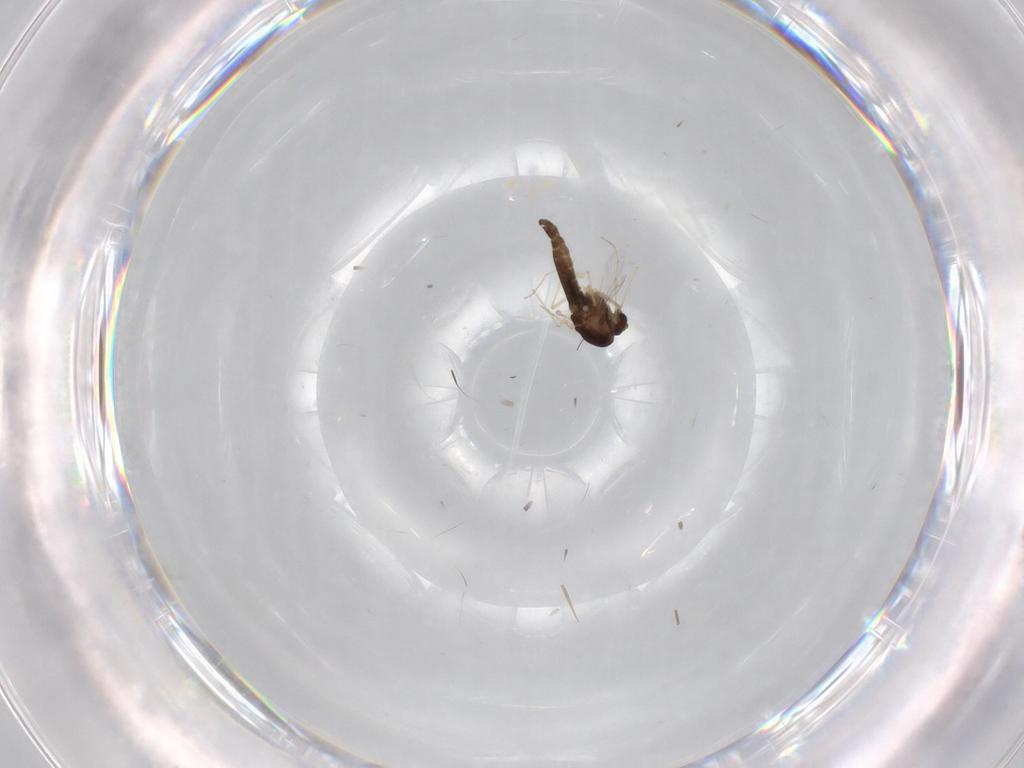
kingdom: Animalia
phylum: Arthropoda
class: Insecta
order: Diptera
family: Chironomidae
